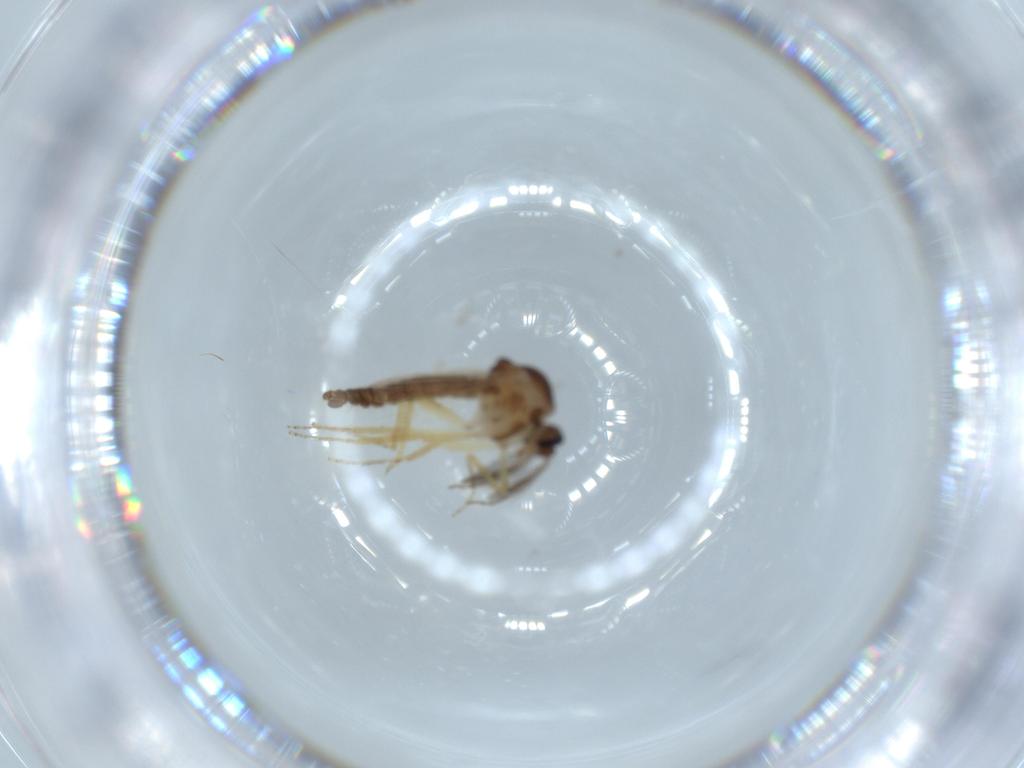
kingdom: Animalia
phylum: Arthropoda
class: Insecta
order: Diptera
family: Ceratopogonidae
